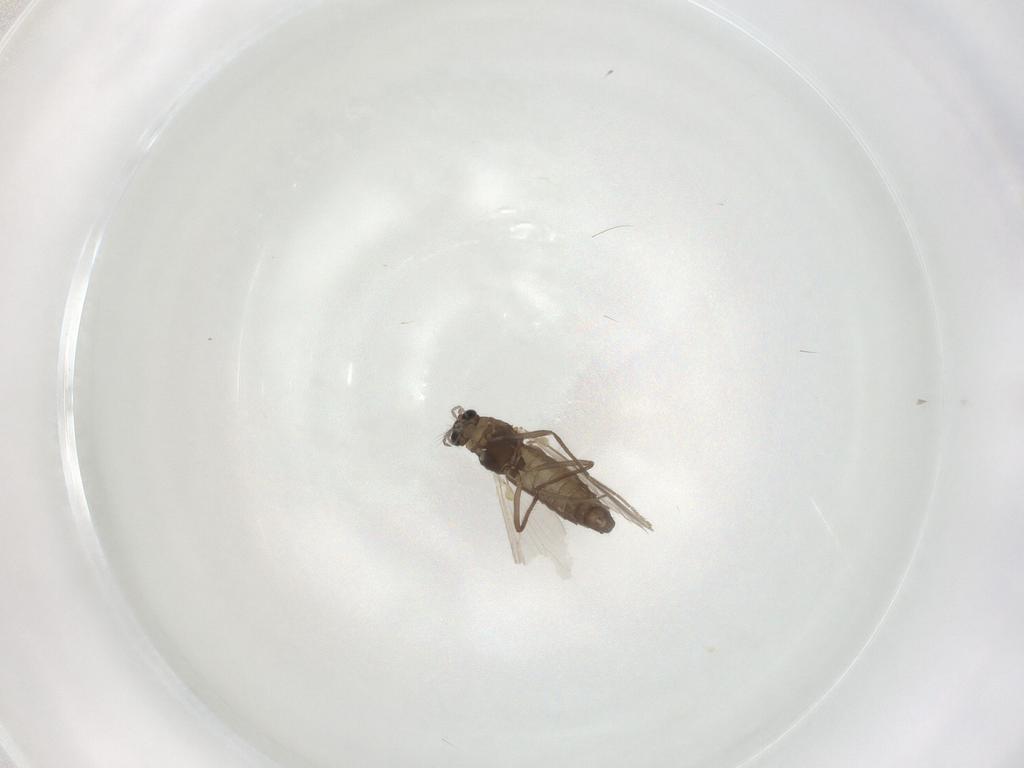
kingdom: Animalia
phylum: Arthropoda
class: Insecta
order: Diptera
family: Chironomidae
